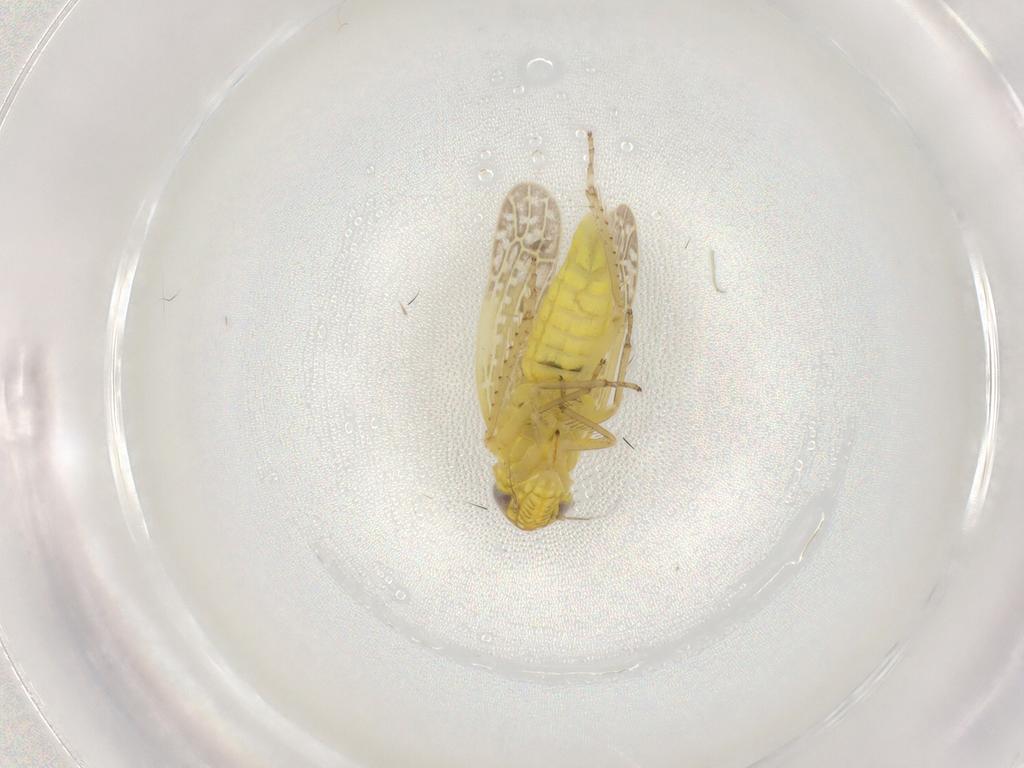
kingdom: Animalia
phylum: Arthropoda
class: Insecta
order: Hemiptera
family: Cicadellidae
